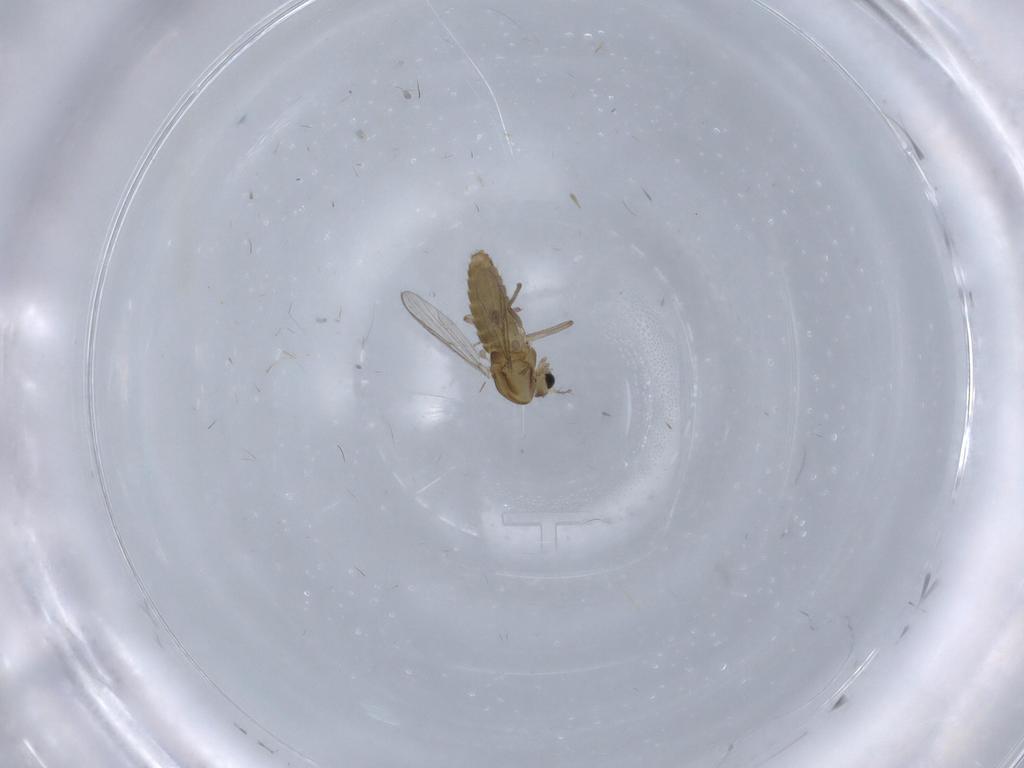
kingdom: Animalia
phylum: Arthropoda
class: Insecta
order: Diptera
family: Chironomidae
